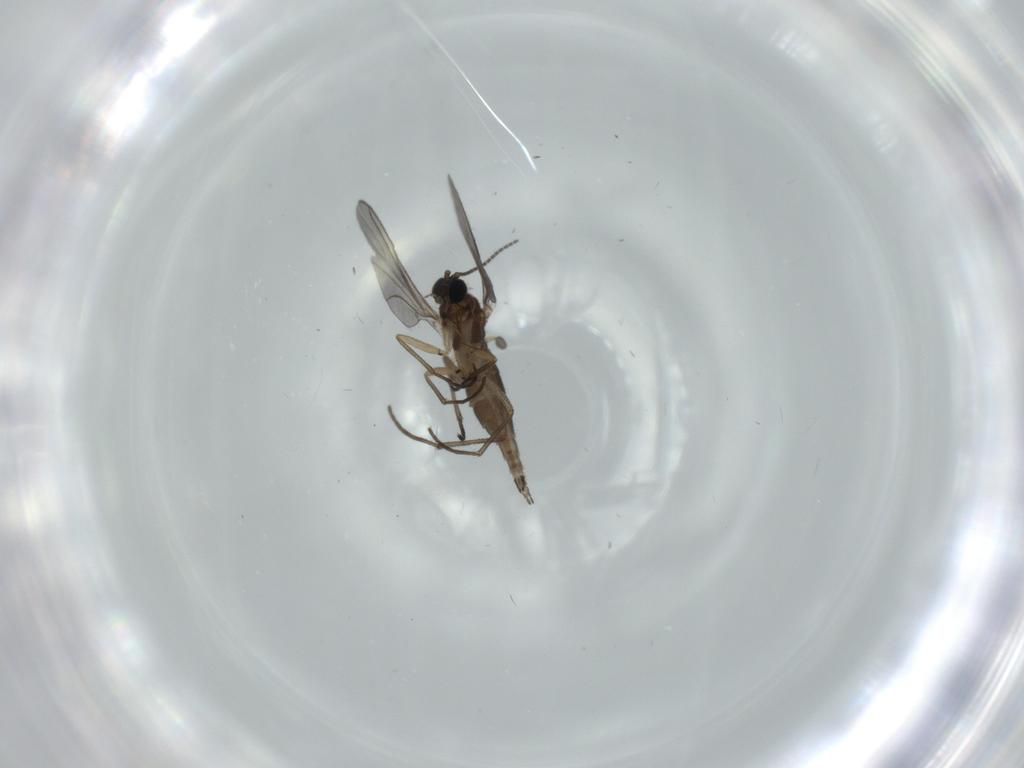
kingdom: Animalia
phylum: Arthropoda
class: Insecta
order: Diptera
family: Sciaridae
